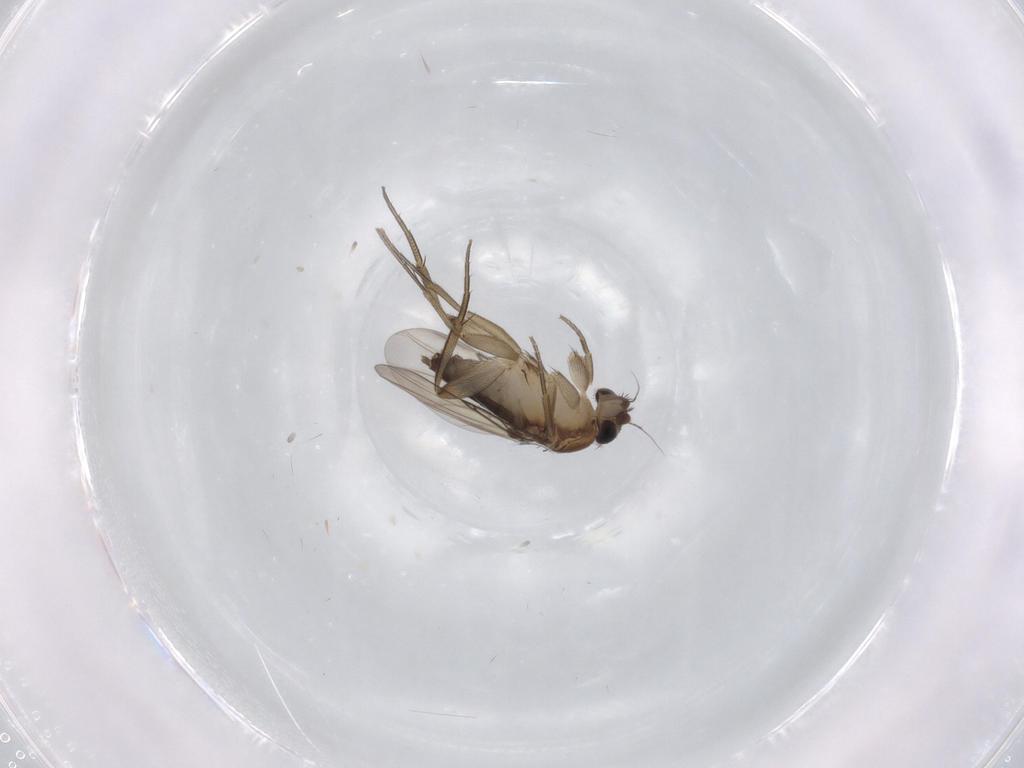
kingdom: Animalia
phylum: Arthropoda
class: Insecta
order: Diptera
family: Phoridae
